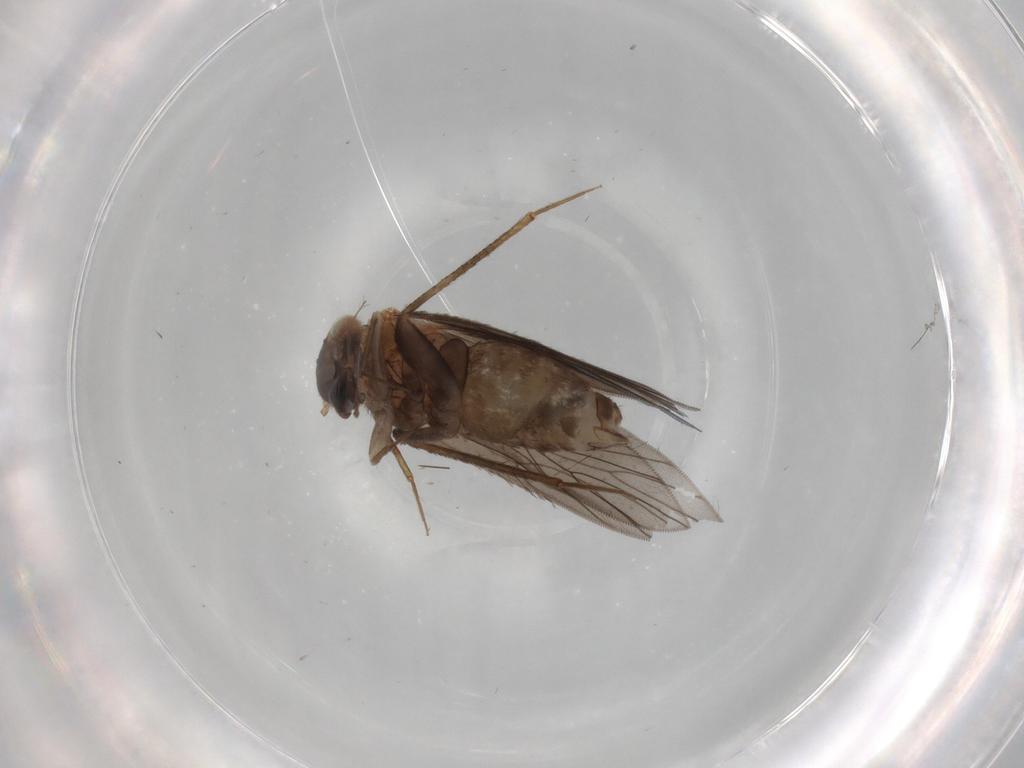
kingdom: Animalia
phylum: Arthropoda
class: Insecta
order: Psocodea
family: Lepidopsocidae
